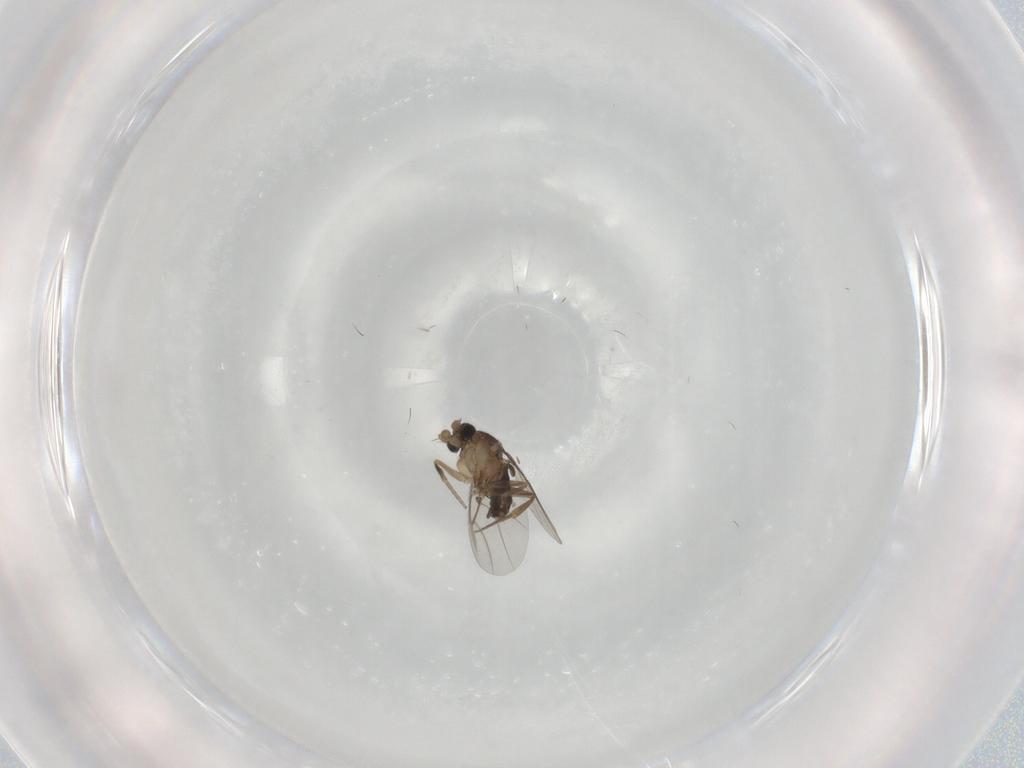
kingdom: Animalia
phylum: Arthropoda
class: Insecta
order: Diptera
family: Phoridae
